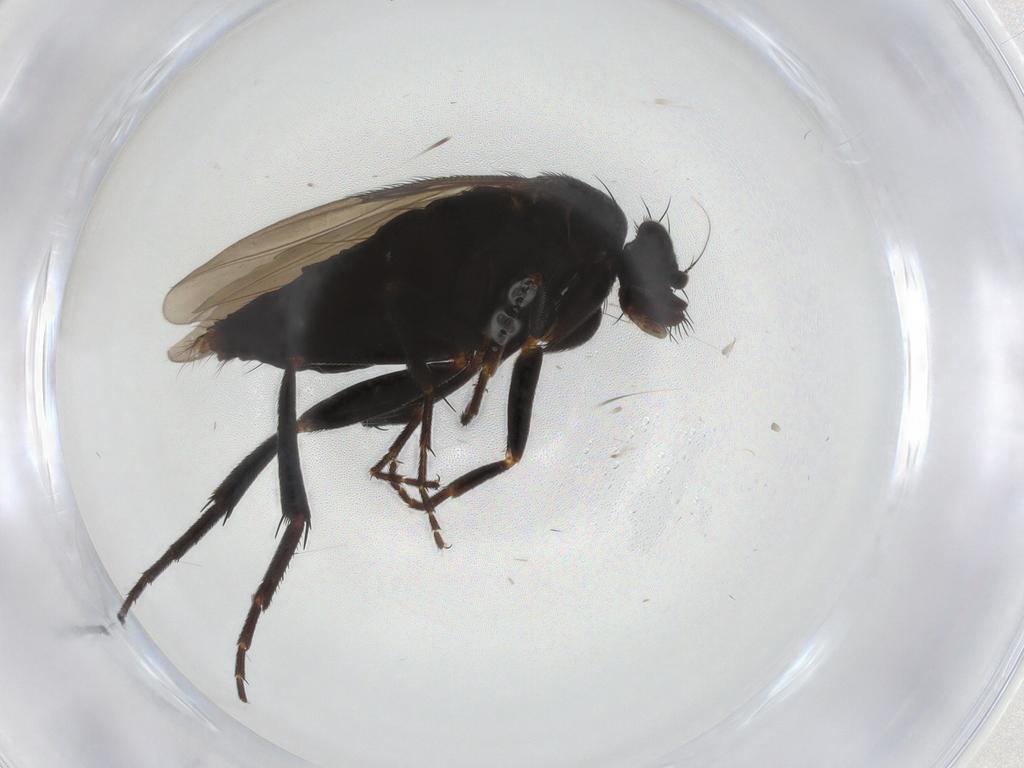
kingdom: Animalia
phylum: Arthropoda
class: Insecta
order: Diptera
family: Phoridae
